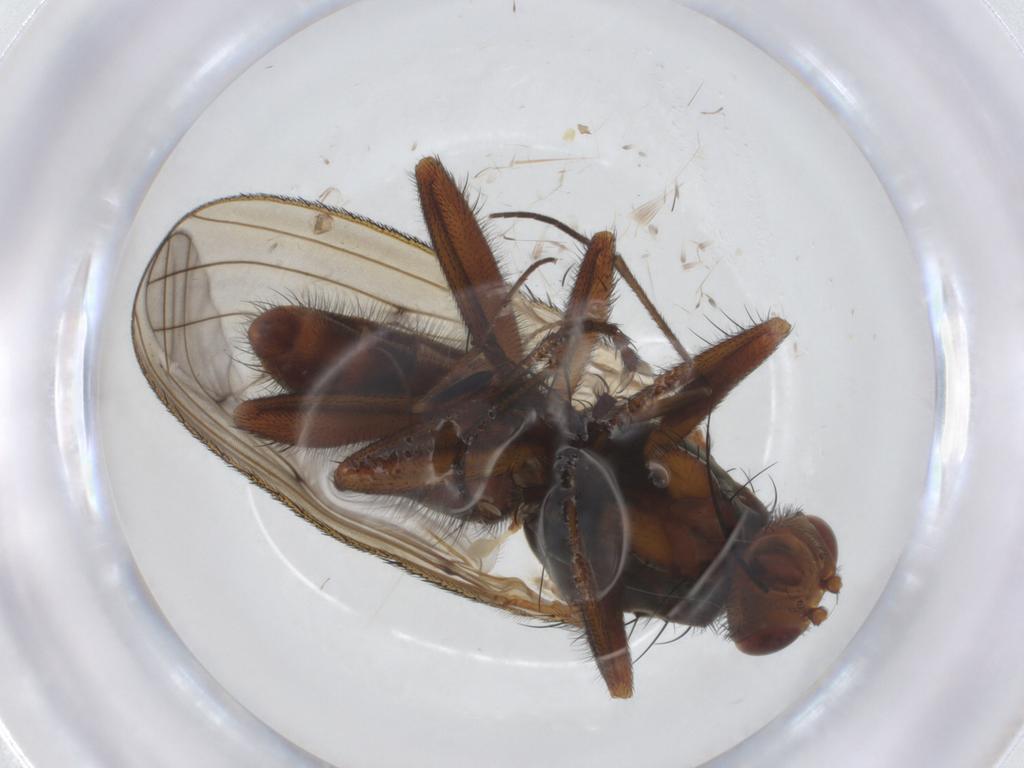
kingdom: Animalia
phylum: Arthropoda
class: Insecta
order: Diptera
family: Heleomyzidae
